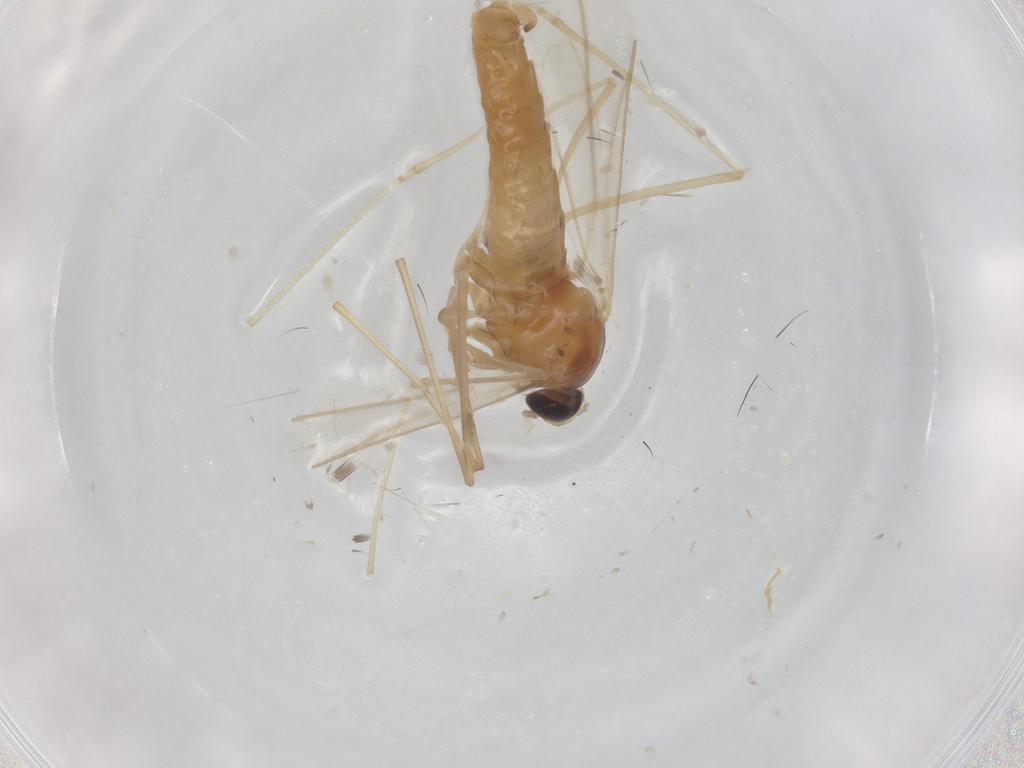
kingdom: Animalia
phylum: Arthropoda
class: Insecta
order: Diptera
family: Cecidomyiidae
